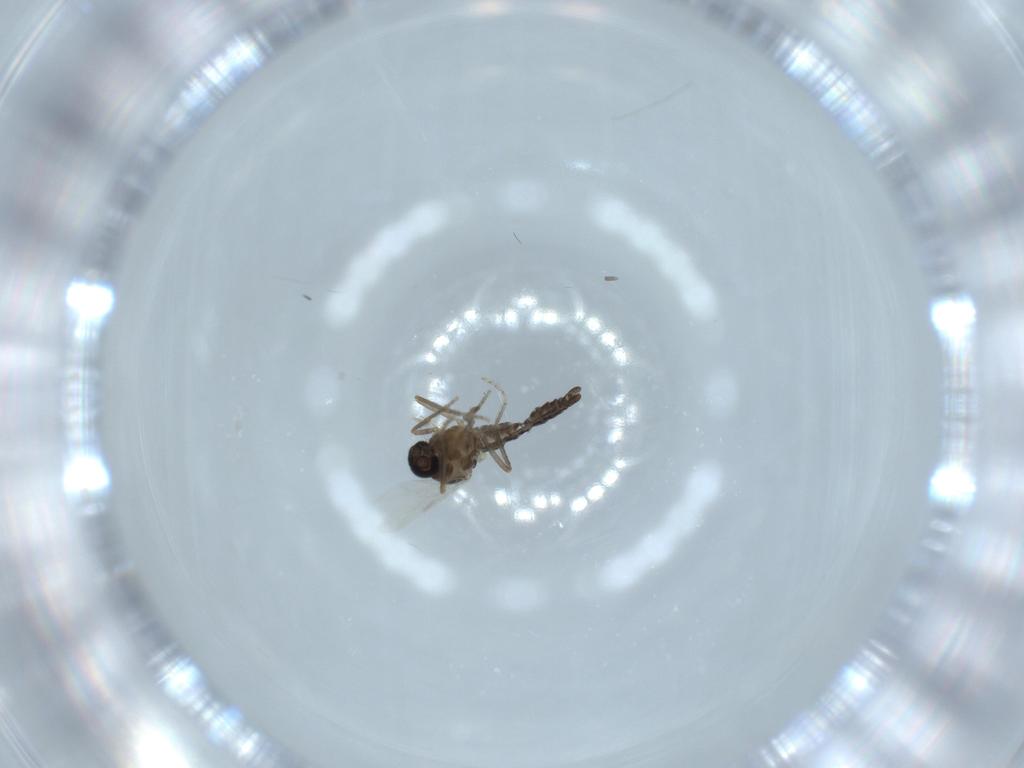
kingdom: Animalia
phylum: Arthropoda
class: Insecta
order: Diptera
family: Ceratopogonidae
